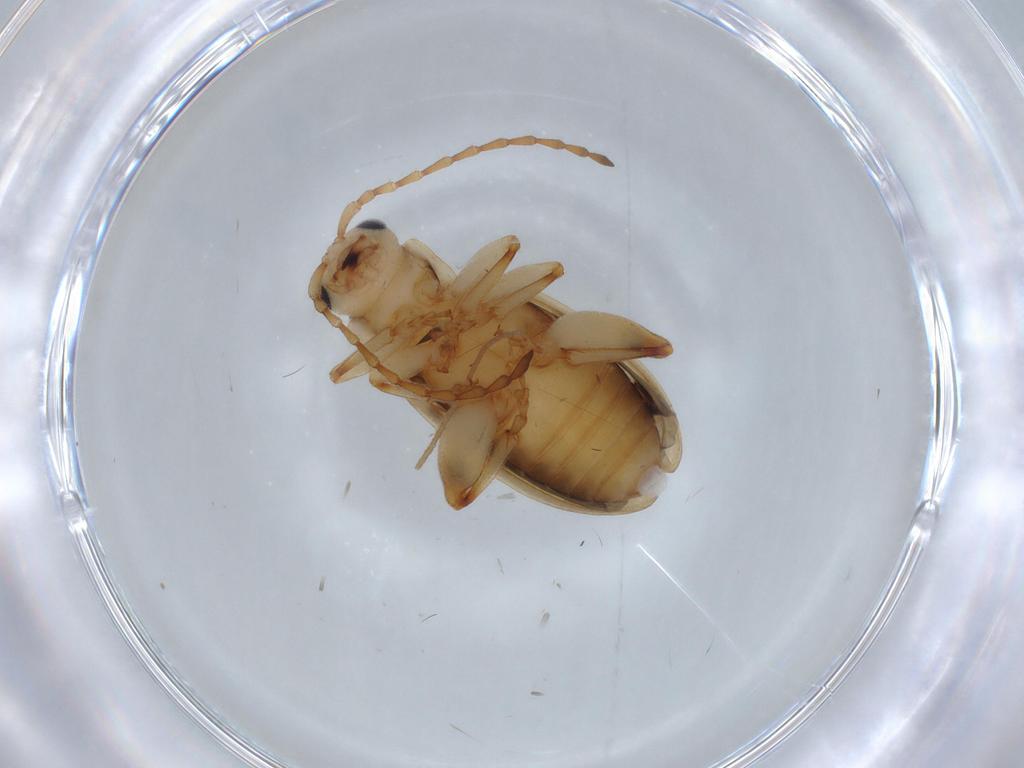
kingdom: Animalia
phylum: Arthropoda
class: Insecta
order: Coleoptera
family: Chrysomelidae
